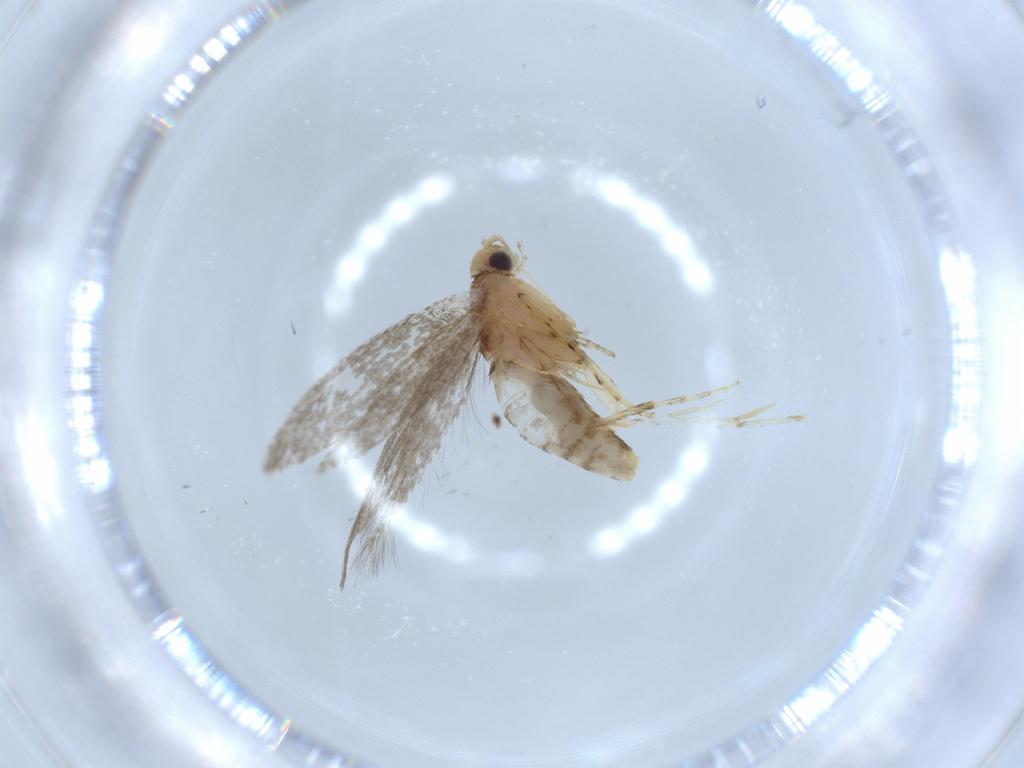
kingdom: Animalia
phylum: Arthropoda
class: Insecta
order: Lepidoptera
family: Argyresthiidae
